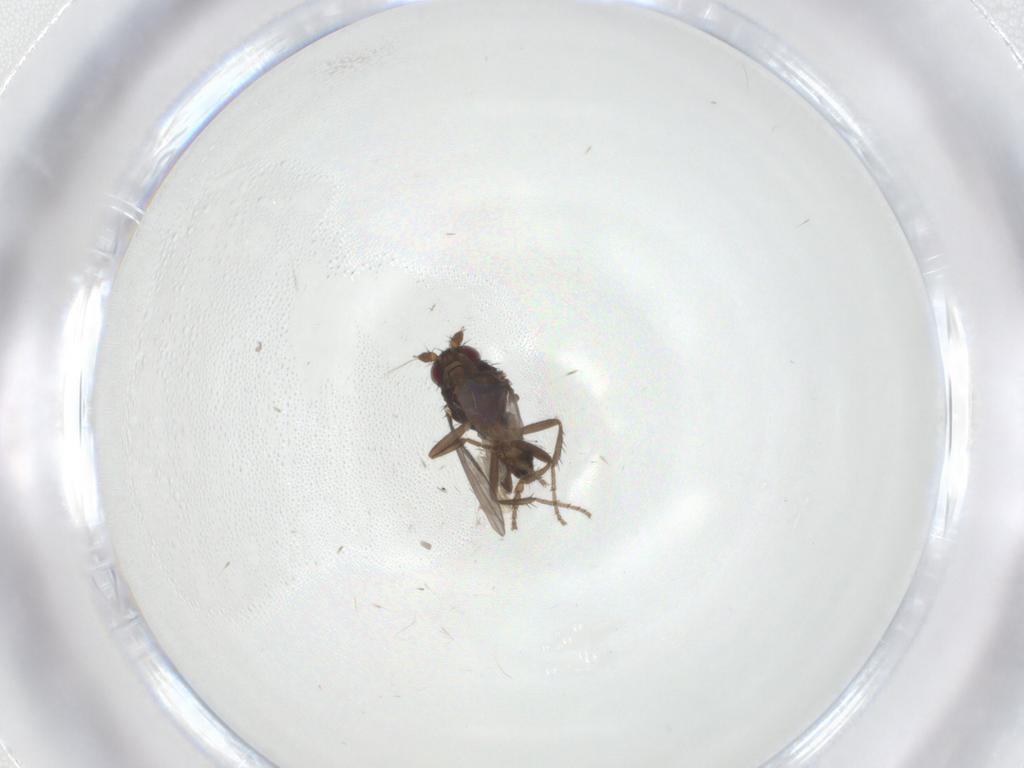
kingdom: Animalia
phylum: Arthropoda
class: Insecta
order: Diptera
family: Sphaeroceridae
